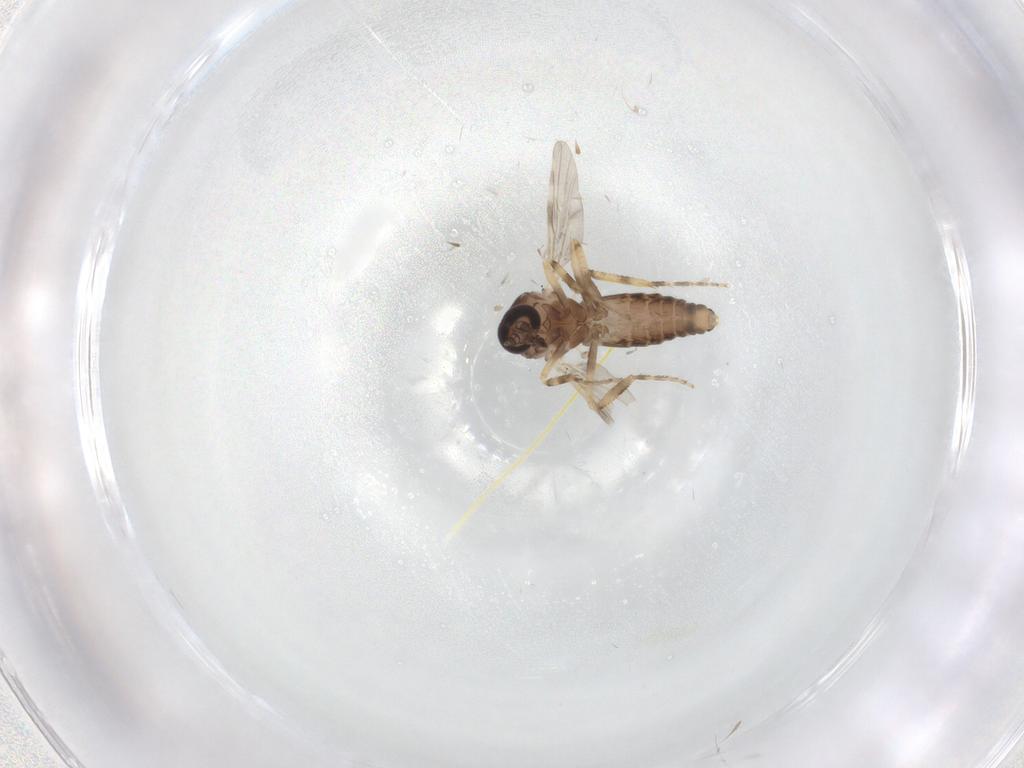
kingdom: Animalia
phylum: Arthropoda
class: Insecta
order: Diptera
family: Ceratopogonidae
